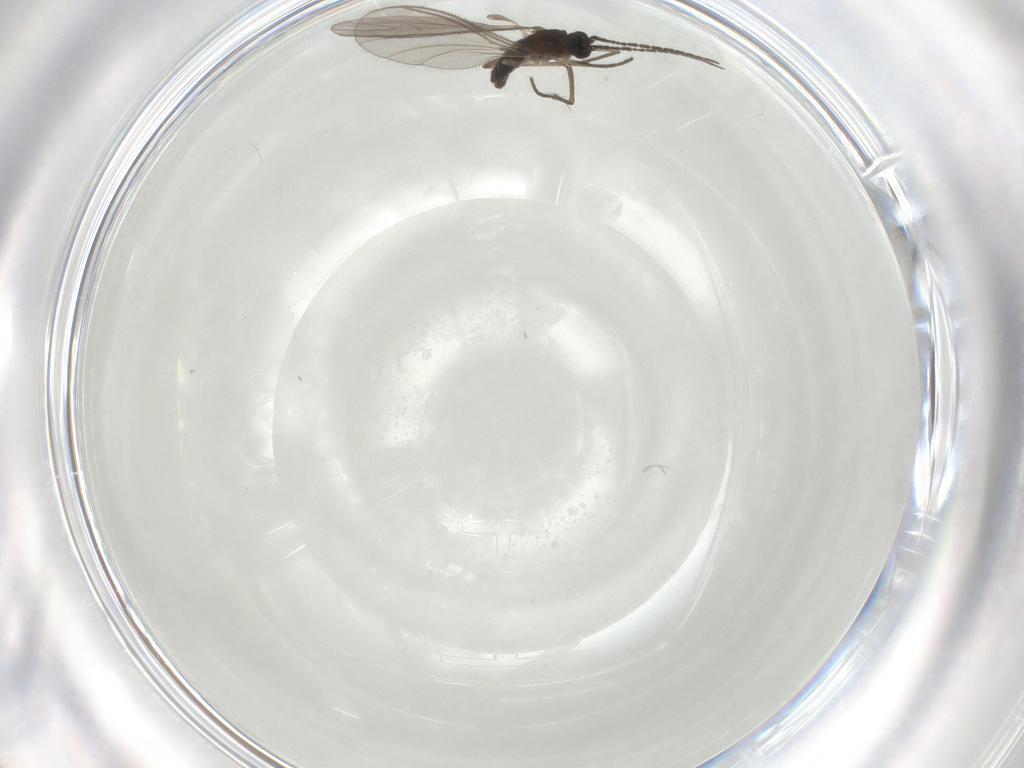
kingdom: Animalia
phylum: Arthropoda
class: Insecta
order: Diptera
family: Sciaridae
